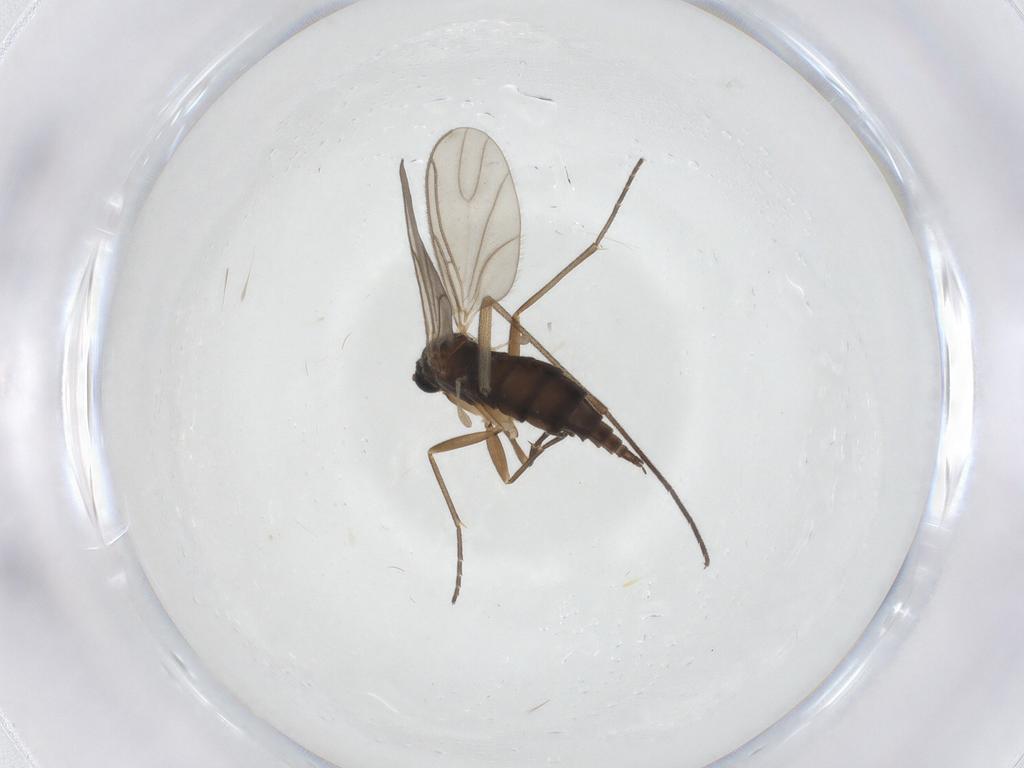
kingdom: Animalia
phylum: Arthropoda
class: Insecta
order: Diptera
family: Sciaridae
